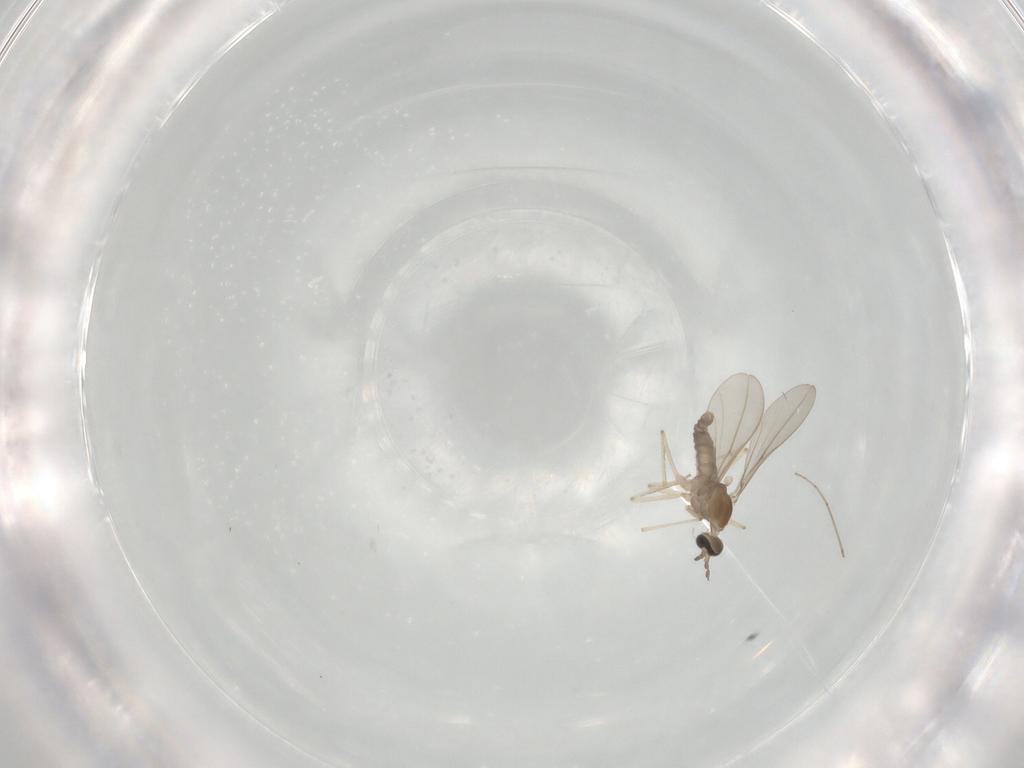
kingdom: Animalia
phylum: Arthropoda
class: Insecta
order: Diptera
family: Cecidomyiidae
